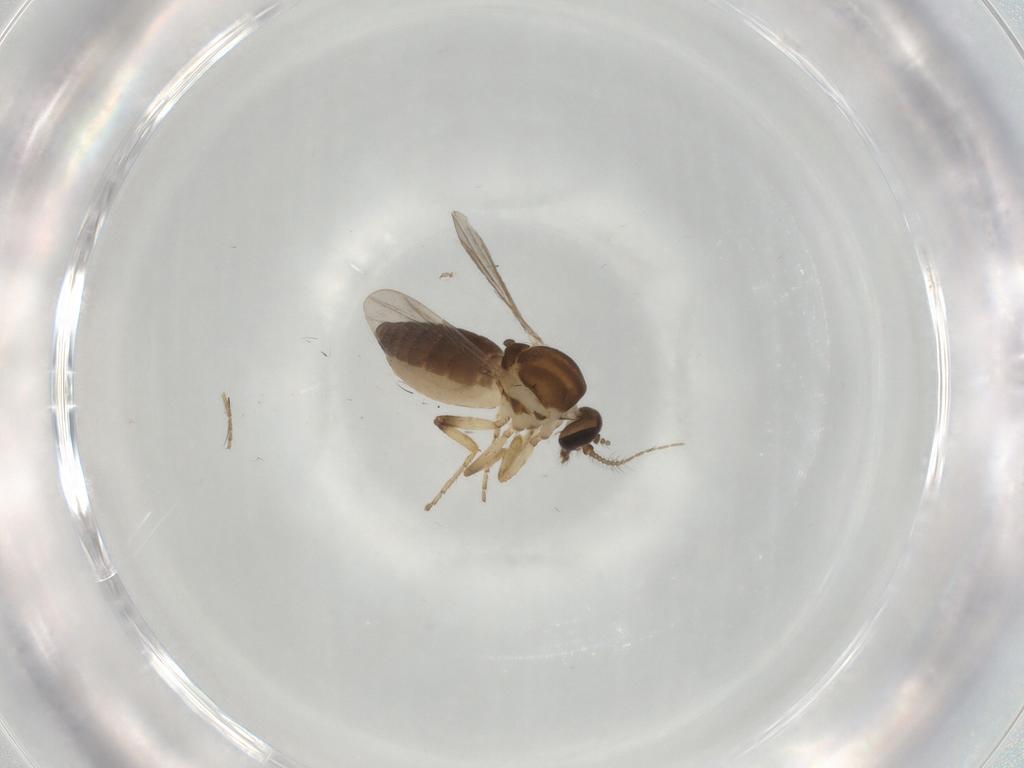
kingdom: Animalia
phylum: Arthropoda
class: Insecta
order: Diptera
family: Ceratopogonidae
